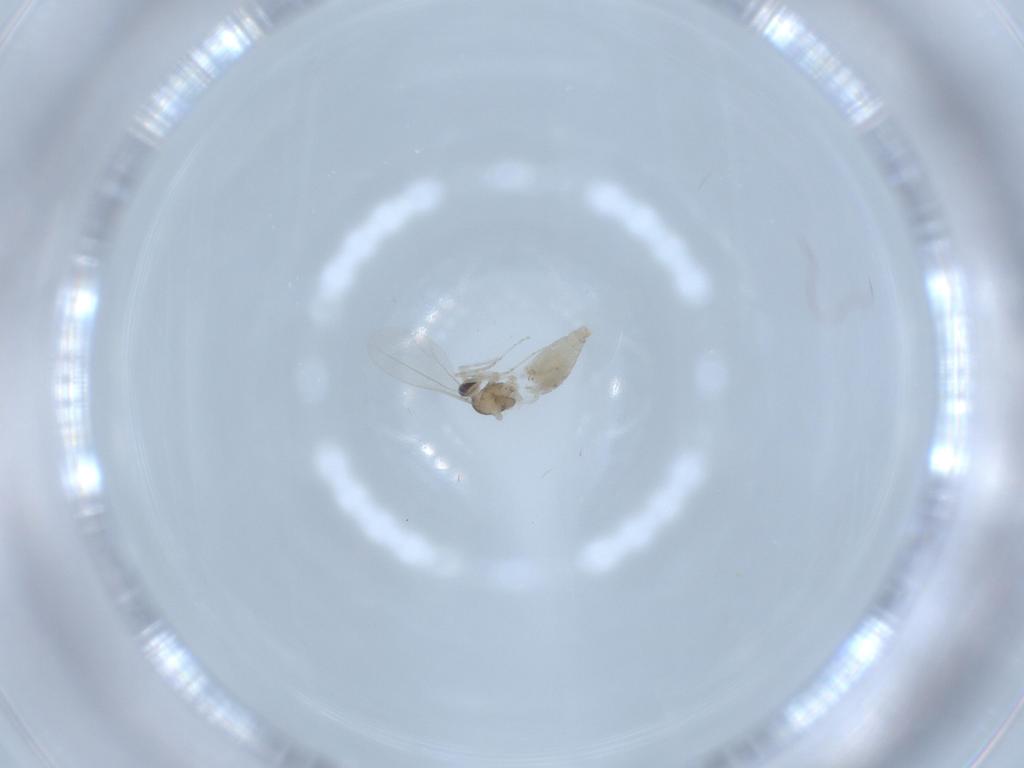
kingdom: Animalia
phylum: Arthropoda
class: Insecta
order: Diptera
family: Cecidomyiidae
